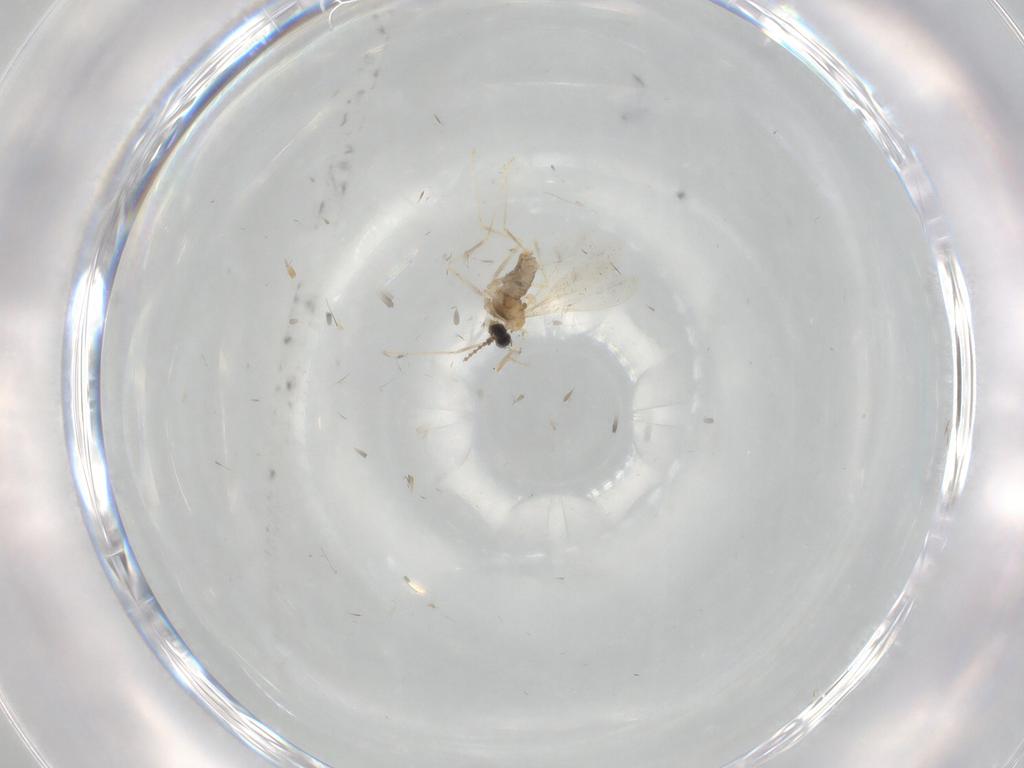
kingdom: Animalia
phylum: Arthropoda
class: Insecta
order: Diptera
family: Cecidomyiidae
